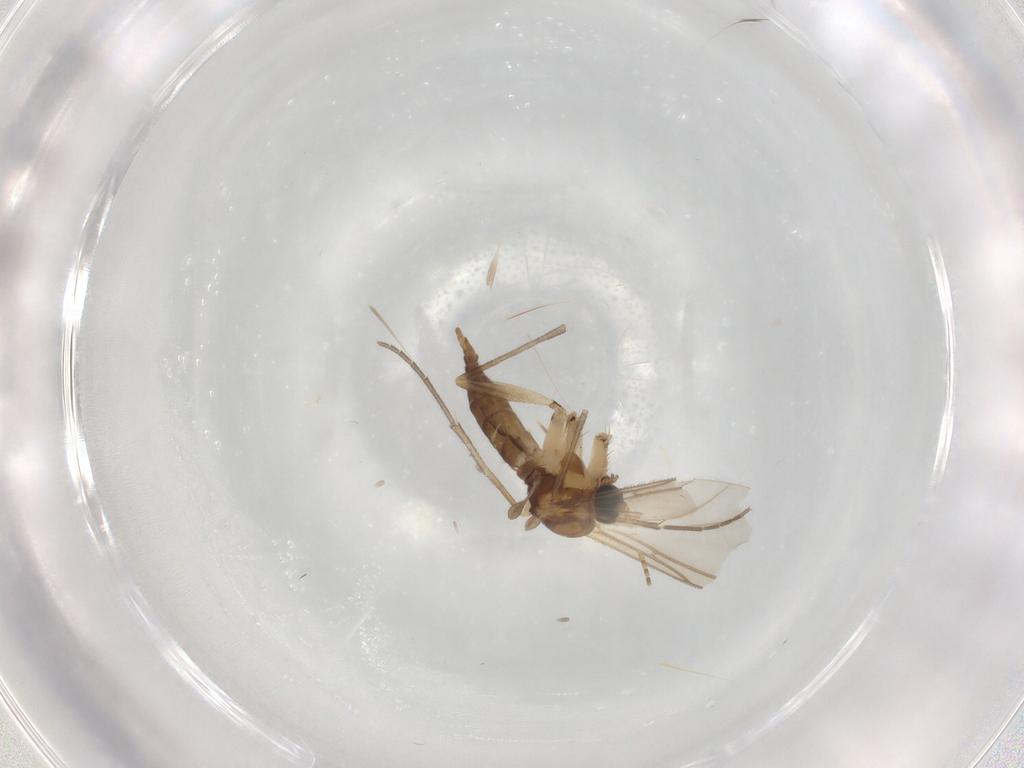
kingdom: Animalia
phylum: Arthropoda
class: Insecta
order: Diptera
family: Sciaridae
